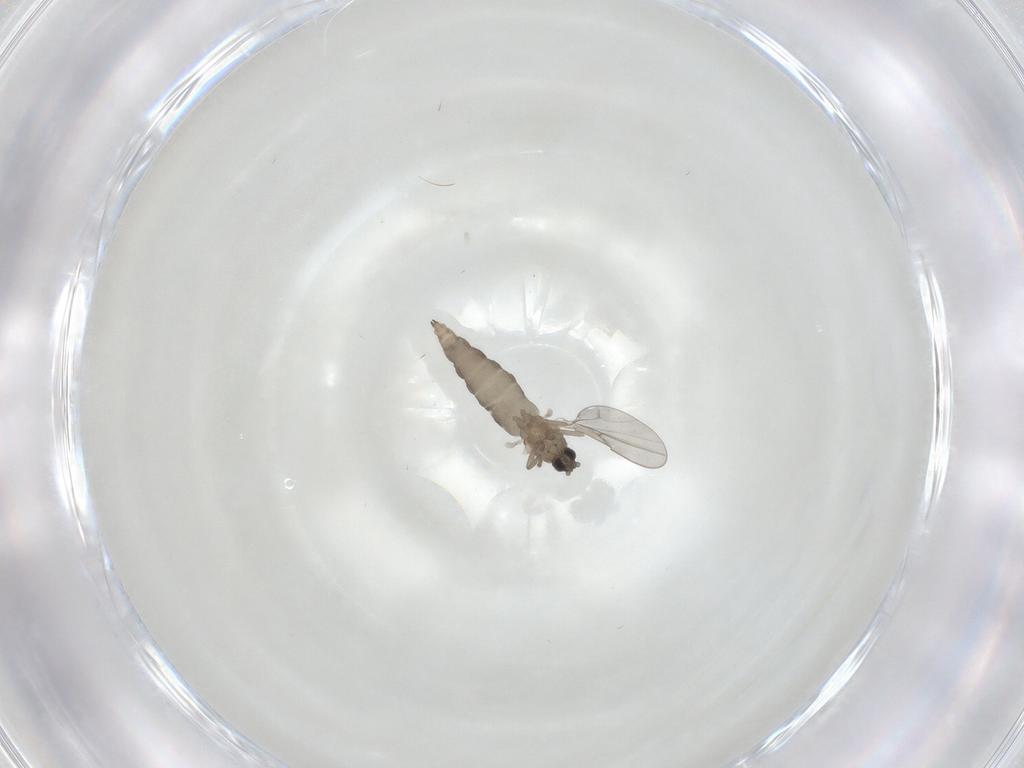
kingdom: Animalia
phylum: Arthropoda
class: Insecta
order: Diptera
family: Cecidomyiidae
